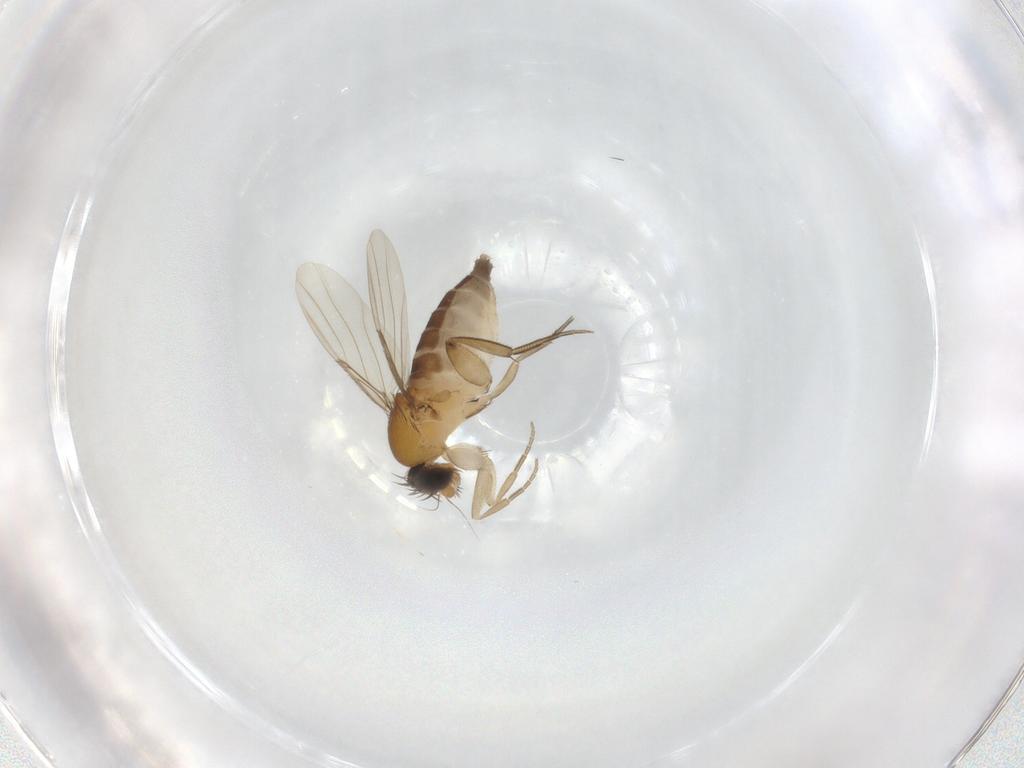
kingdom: Animalia
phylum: Arthropoda
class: Insecta
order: Diptera
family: Phoridae
